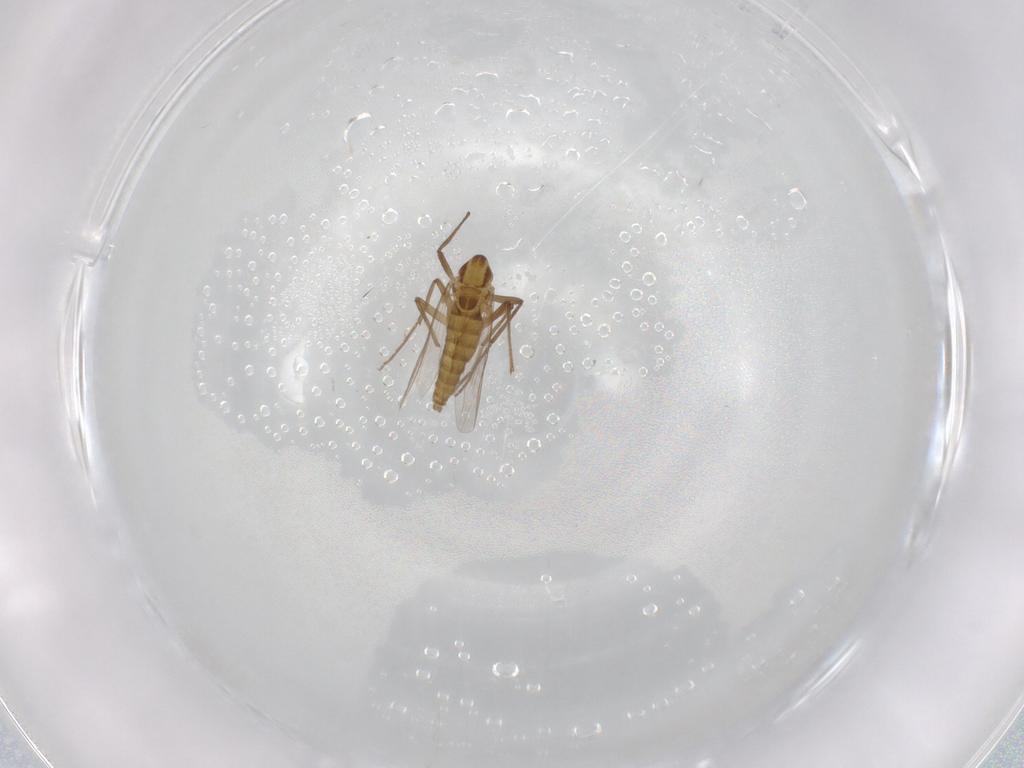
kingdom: Animalia
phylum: Arthropoda
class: Insecta
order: Diptera
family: Chironomidae
